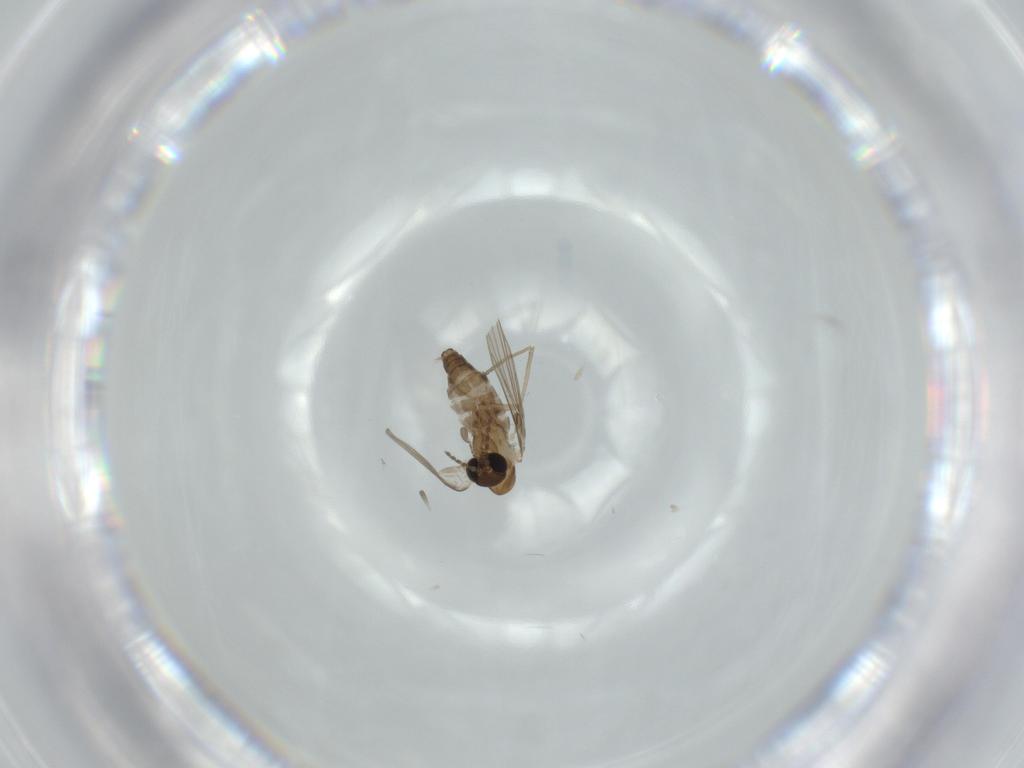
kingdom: Animalia
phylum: Arthropoda
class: Insecta
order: Diptera
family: Psychodidae
